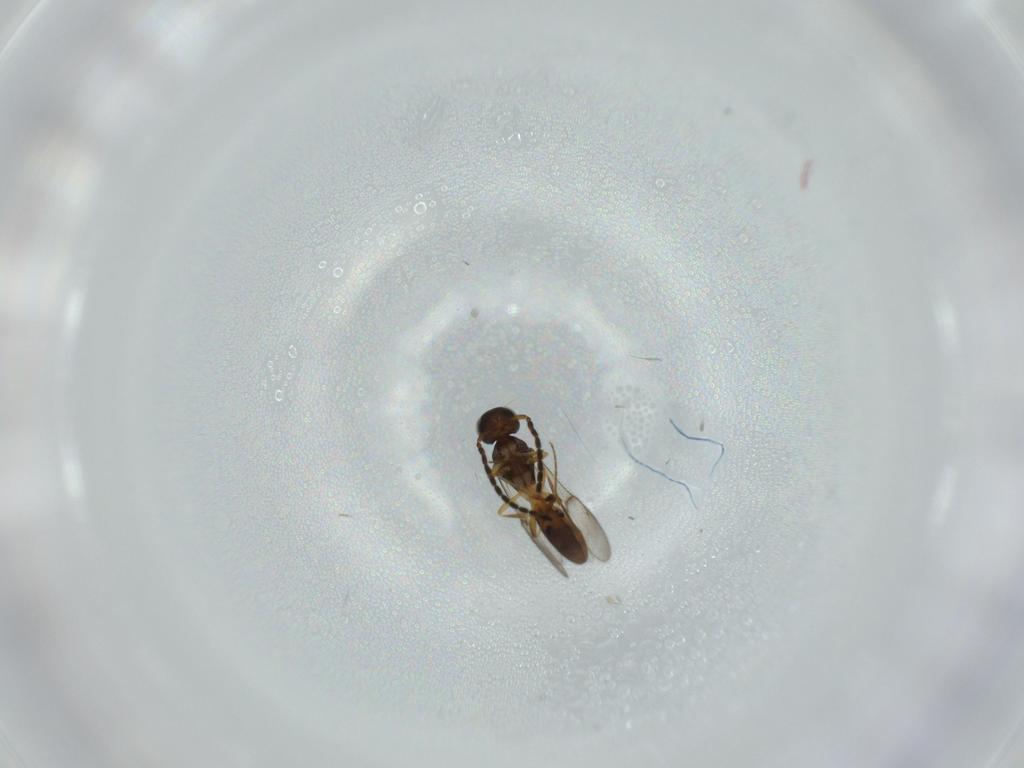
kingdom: Animalia
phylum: Arthropoda
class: Insecta
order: Hymenoptera
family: Scelionidae
